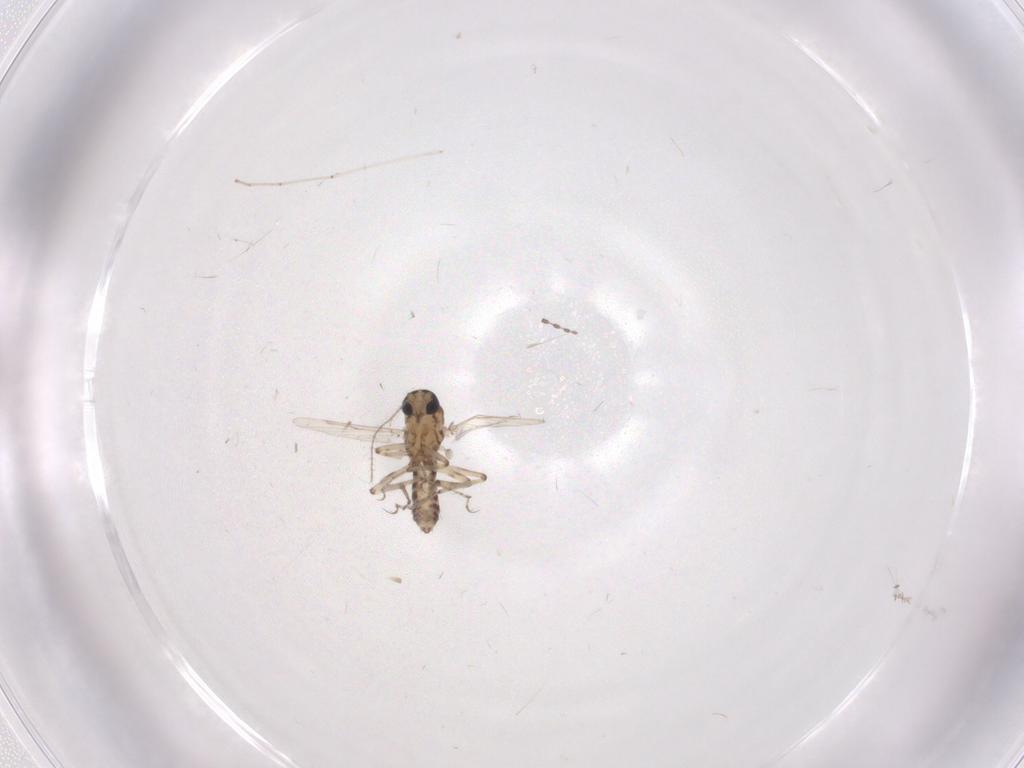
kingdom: Animalia
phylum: Arthropoda
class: Insecta
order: Diptera
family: Ceratopogonidae
